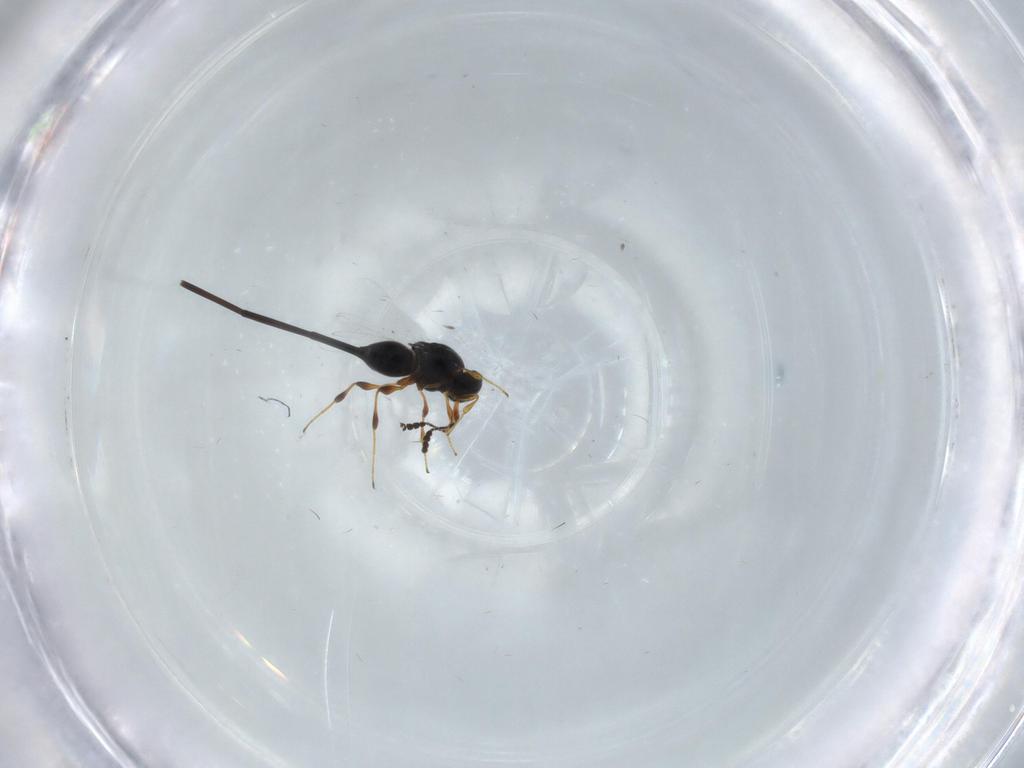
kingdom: Animalia
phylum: Arthropoda
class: Insecta
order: Hymenoptera
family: Platygastridae
